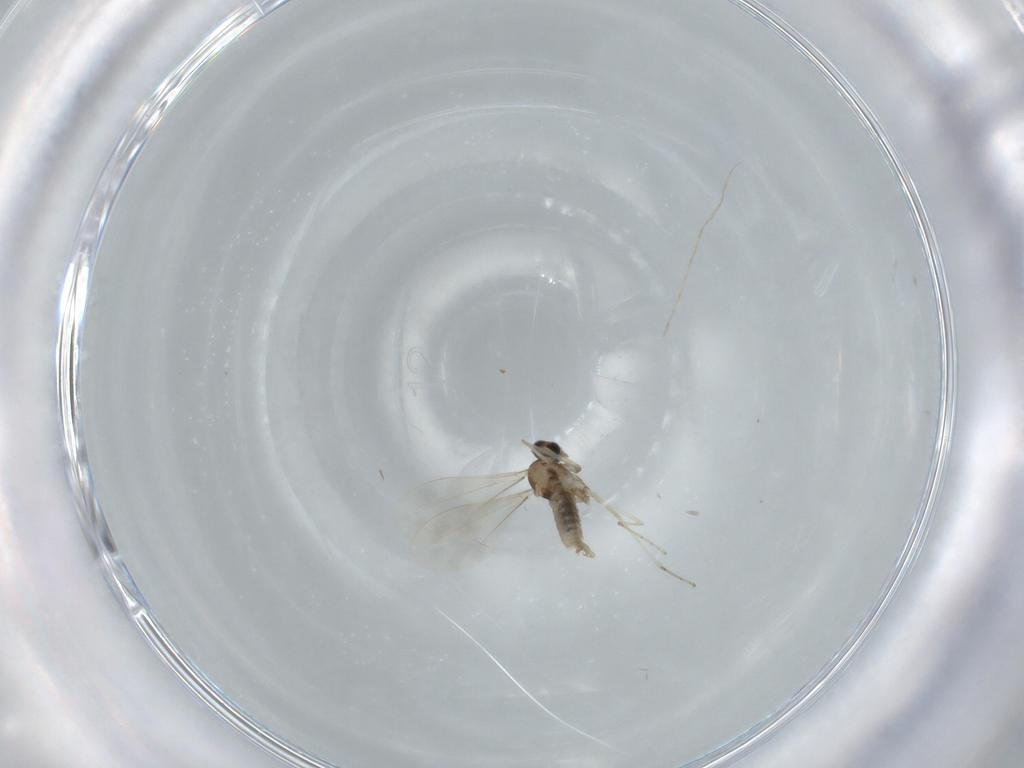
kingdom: Animalia
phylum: Arthropoda
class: Insecta
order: Diptera
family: Cecidomyiidae
